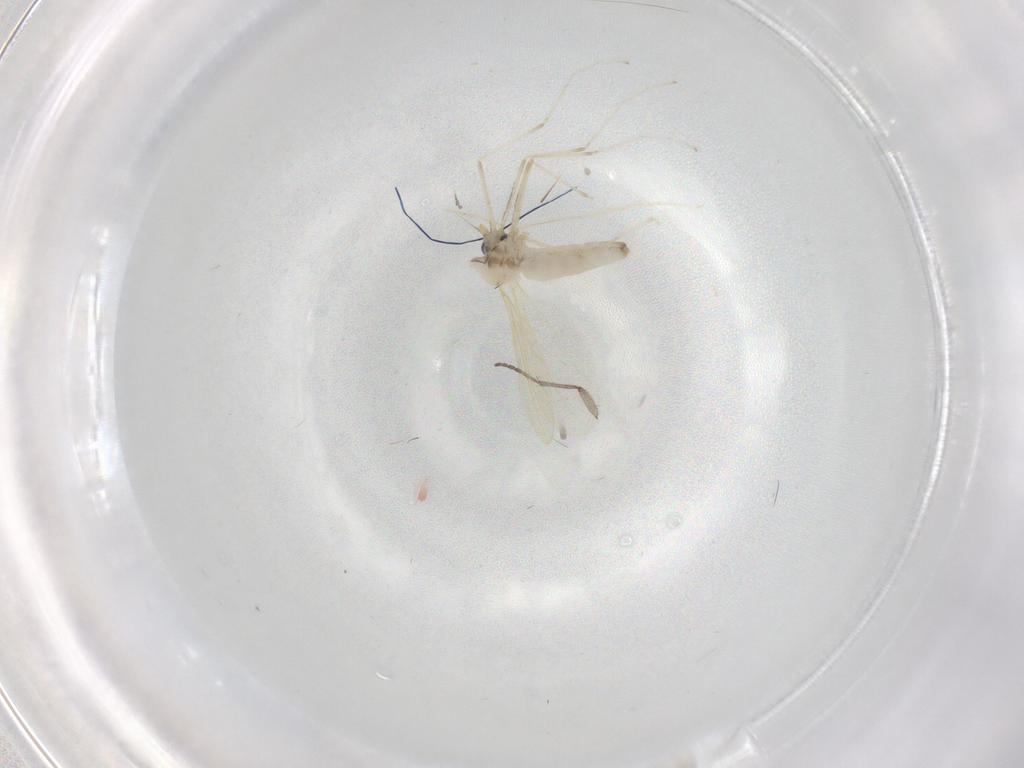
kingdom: Animalia
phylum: Arthropoda
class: Insecta
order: Diptera
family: Cecidomyiidae
